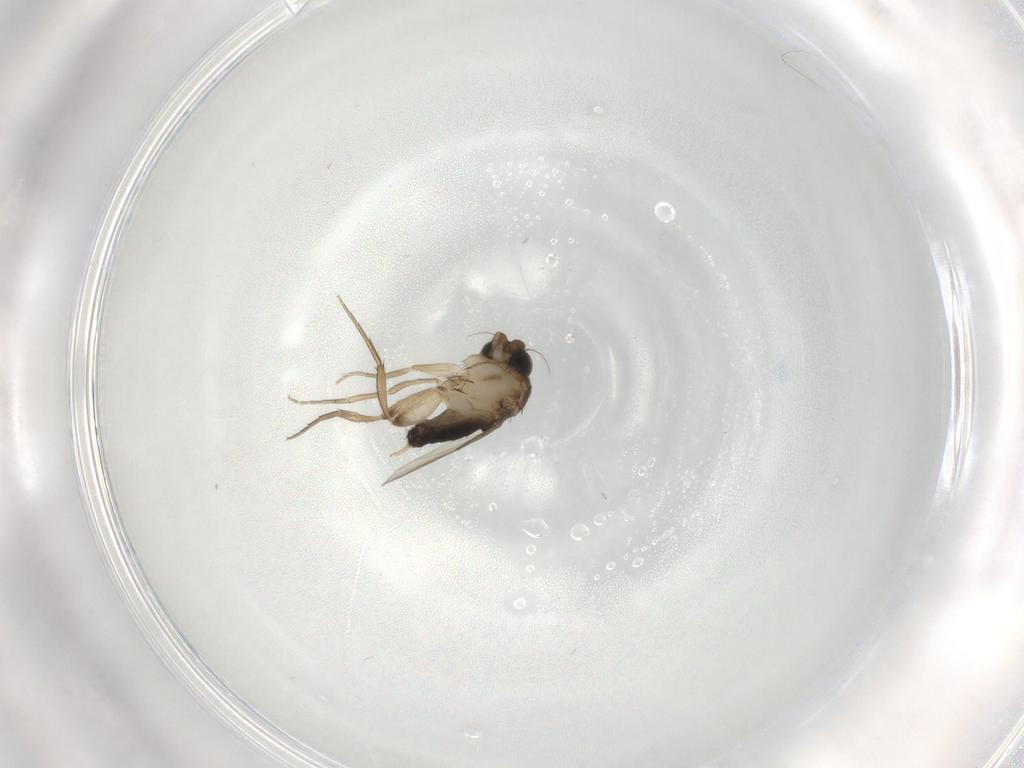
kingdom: Animalia
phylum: Arthropoda
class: Insecta
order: Diptera
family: Phoridae
